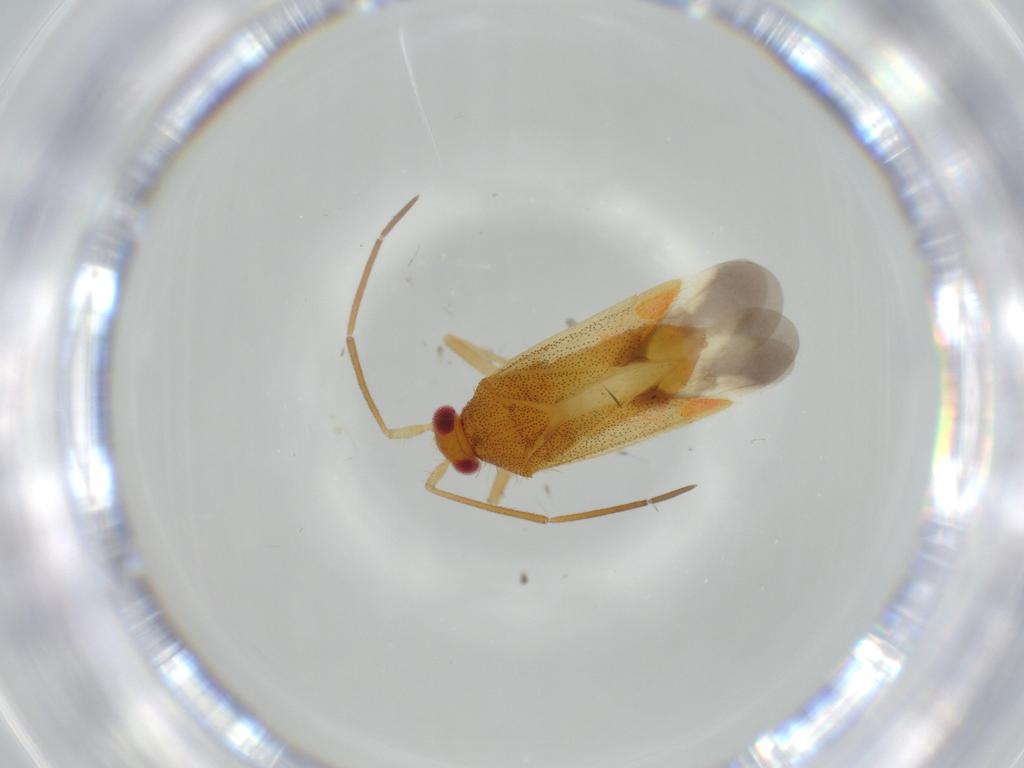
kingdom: Animalia
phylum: Arthropoda
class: Insecta
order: Hemiptera
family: Miridae
